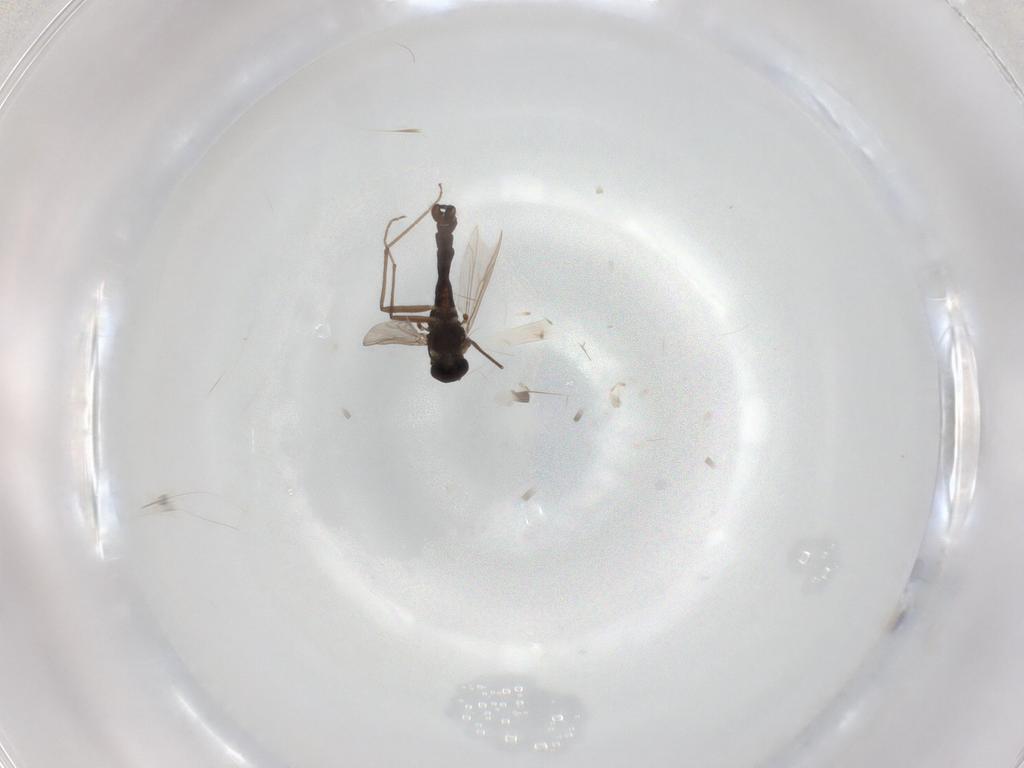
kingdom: Animalia
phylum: Arthropoda
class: Insecta
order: Diptera
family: Chironomidae
